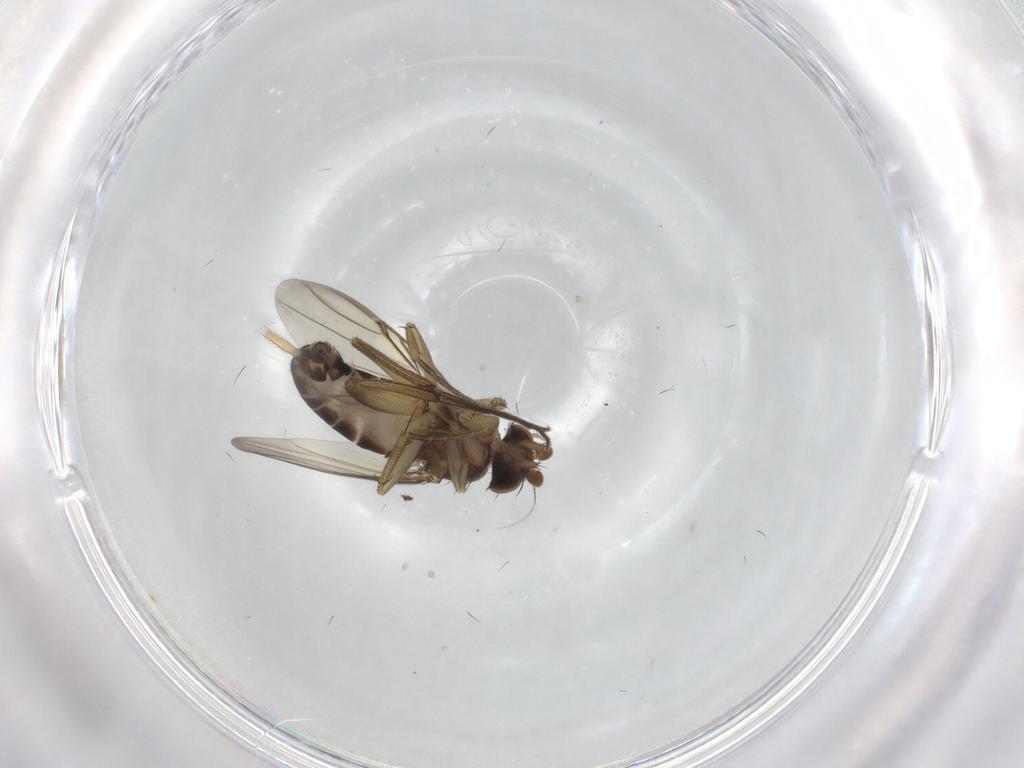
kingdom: Animalia
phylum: Arthropoda
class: Insecta
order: Diptera
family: Phoridae
